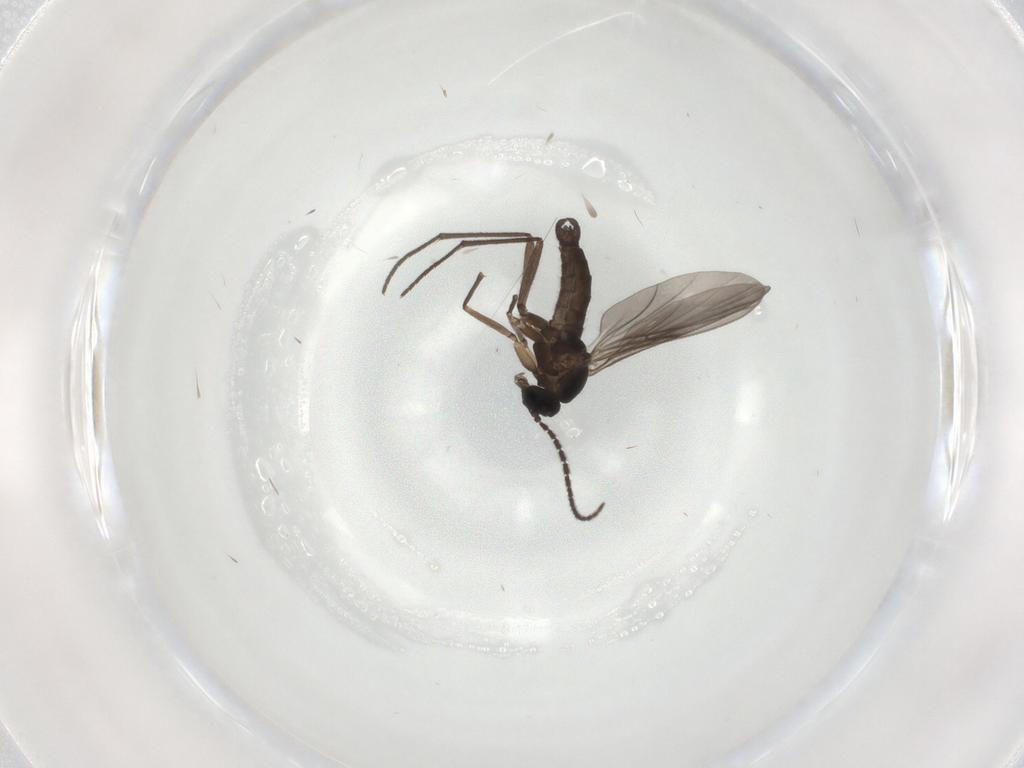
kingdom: Animalia
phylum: Arthropoda
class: Insecta
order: Diptera
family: Sciaridae
